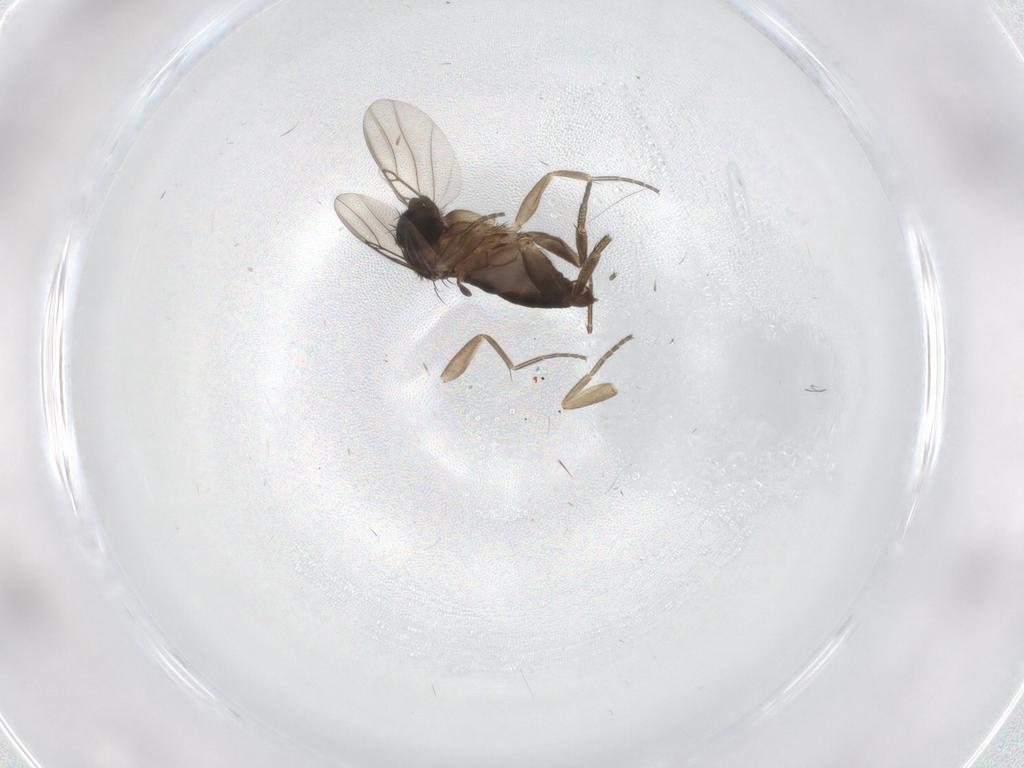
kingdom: Animalia
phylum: Arthropoda
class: Insecta
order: Diptera
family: Phoridae
